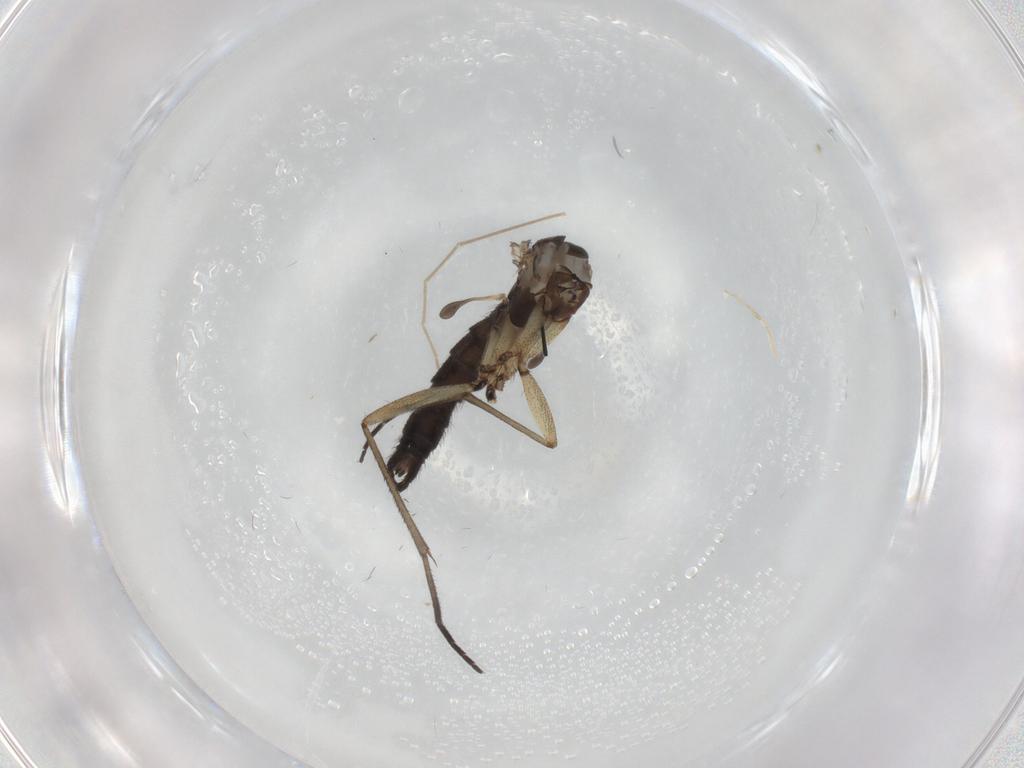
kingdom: Animalia
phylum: Arthropoda
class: Insecta
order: Diptera
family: Sciaridae
